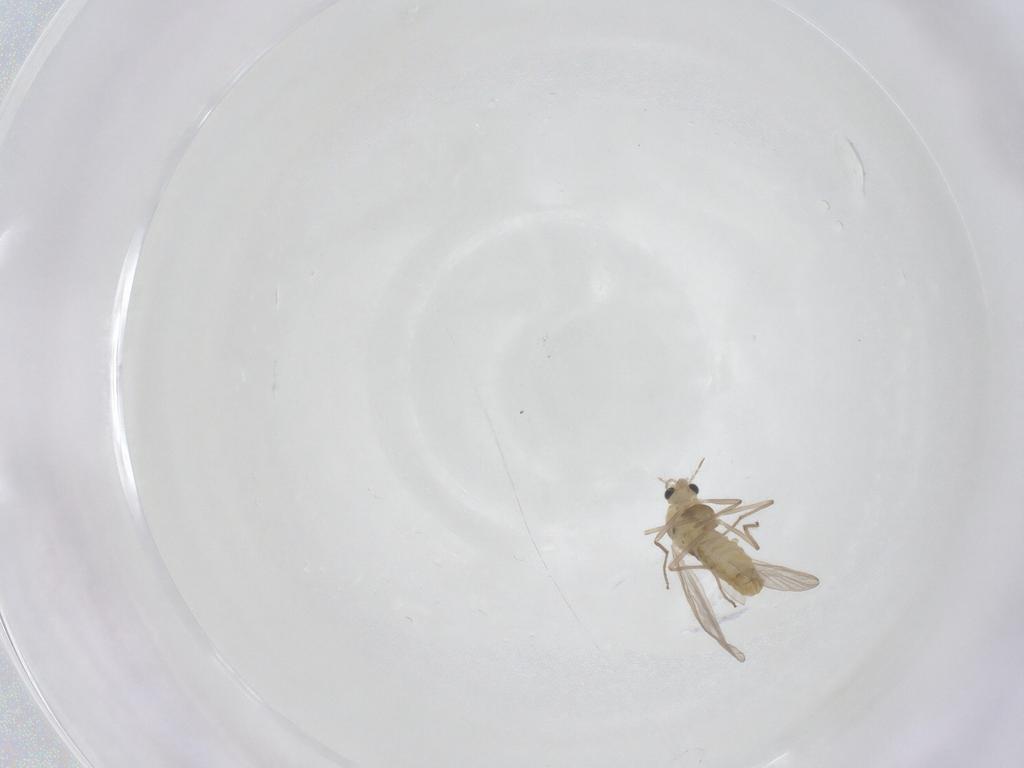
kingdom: Animalia
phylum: Arthropoda
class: Insecta
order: Diptera
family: Chironomidae
